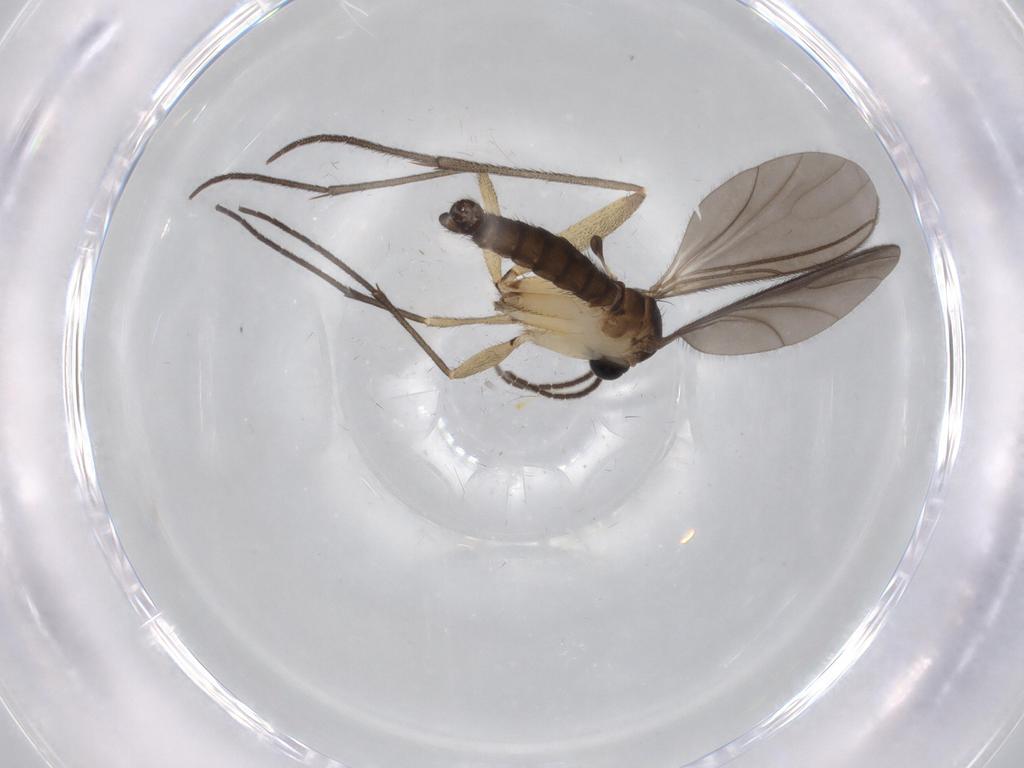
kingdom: Animalia
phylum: Arthropoda
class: Insecta
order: Diptera
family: Sciaridae
